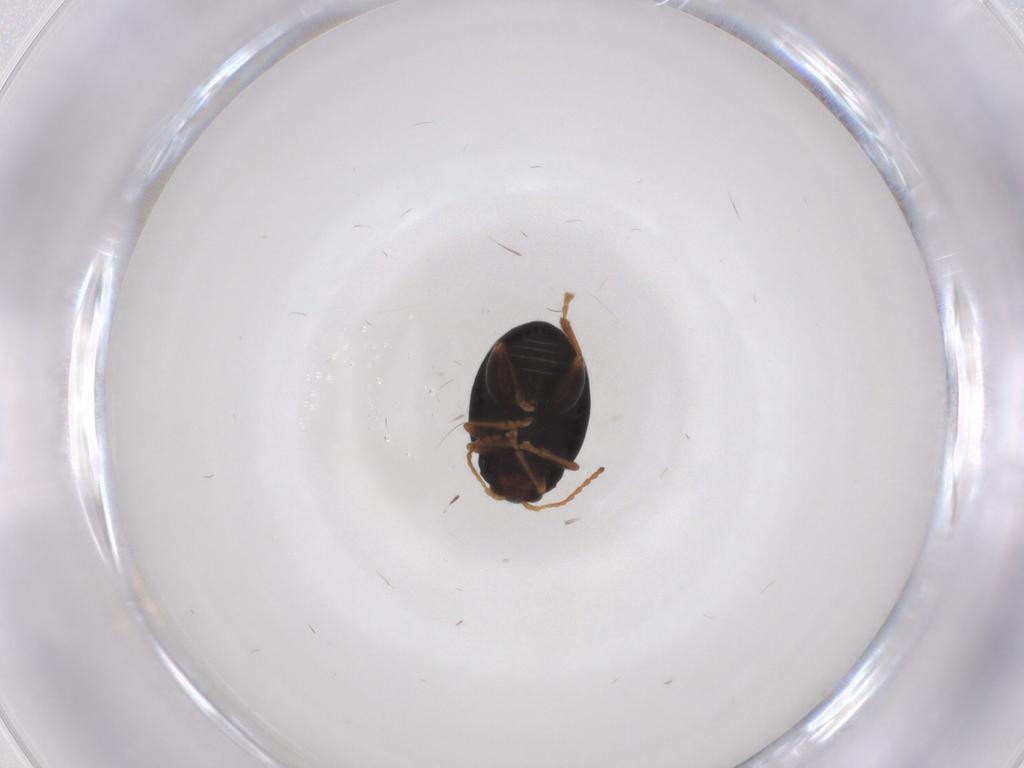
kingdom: Animalia
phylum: Arthropoda
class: Insecta
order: Coleoptera
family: Chrysomelidae
